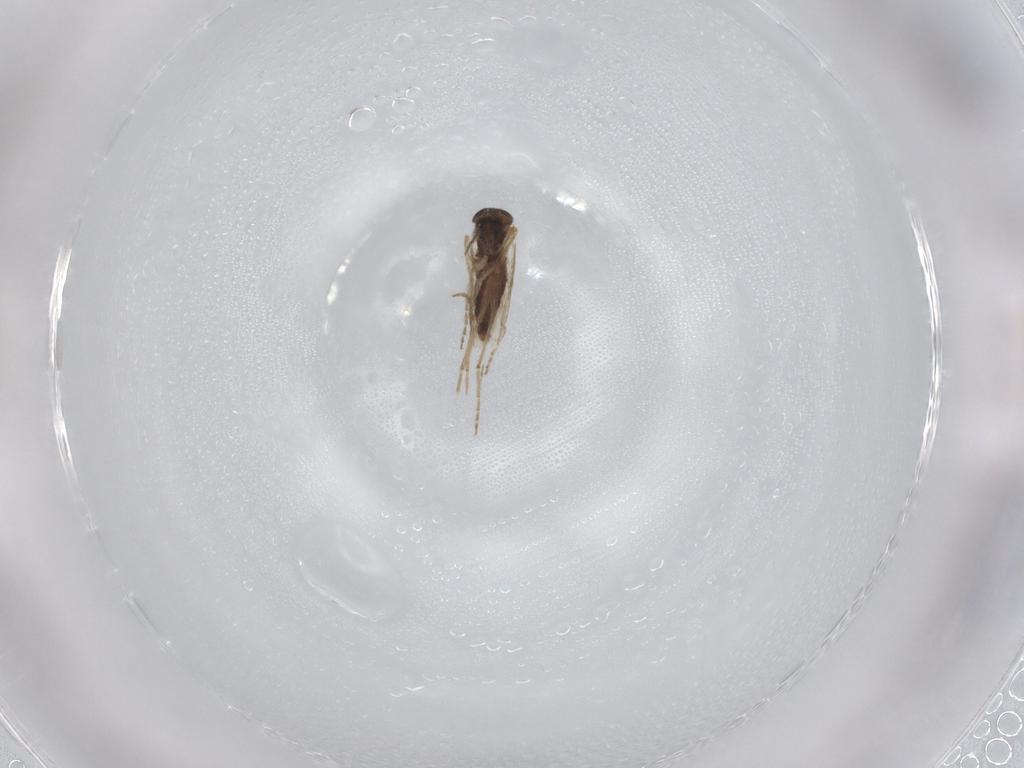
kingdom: Animalia
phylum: Arthropoda
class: Insecta
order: Diptera
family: Ceratopogonidae
